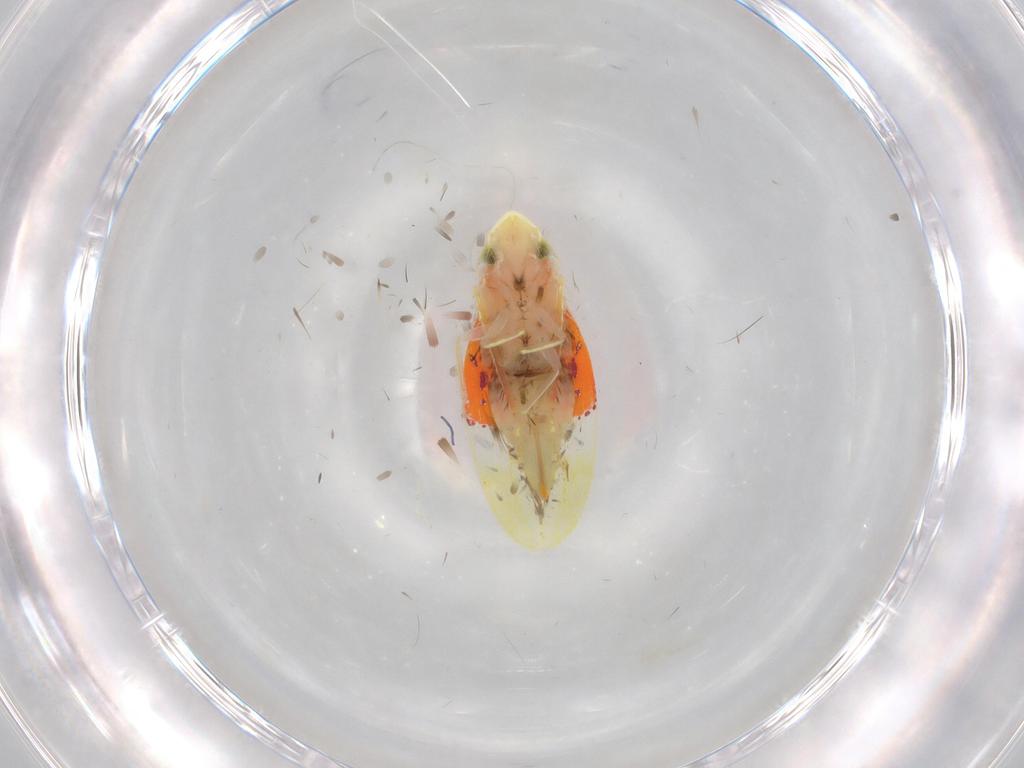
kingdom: Animalia
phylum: Arthropoda
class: Insecta
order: Hemiptera
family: Cicadellidae
